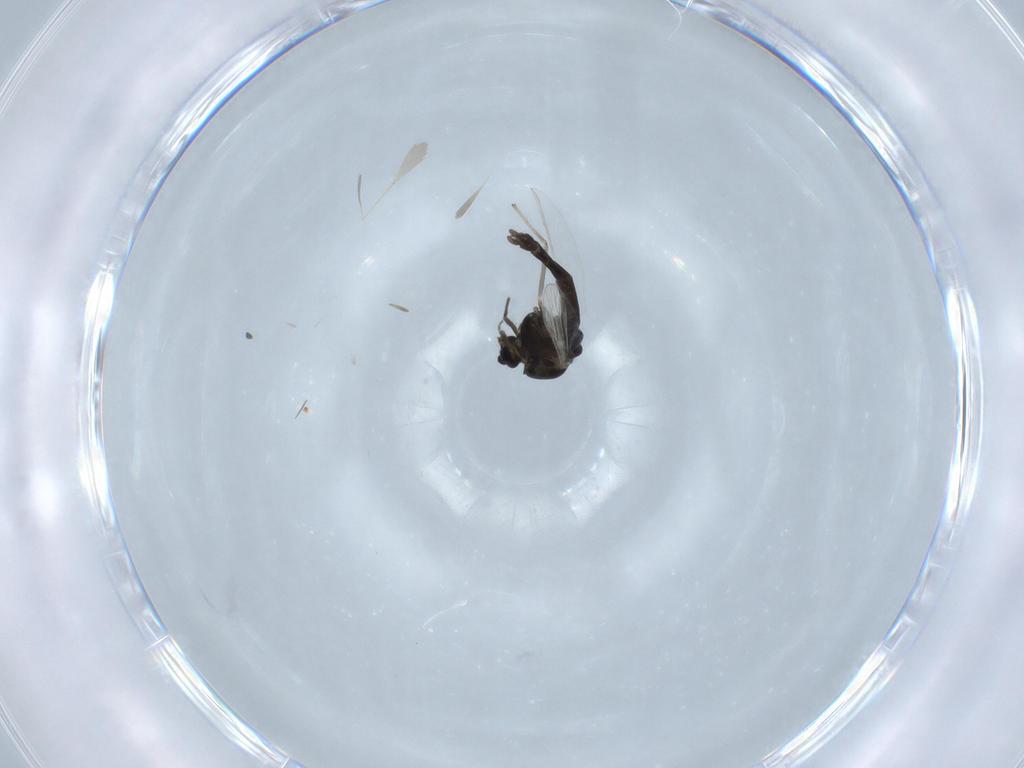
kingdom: Animalia
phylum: Arthropoda
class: Insecta
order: Diptera
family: Chironomidae
